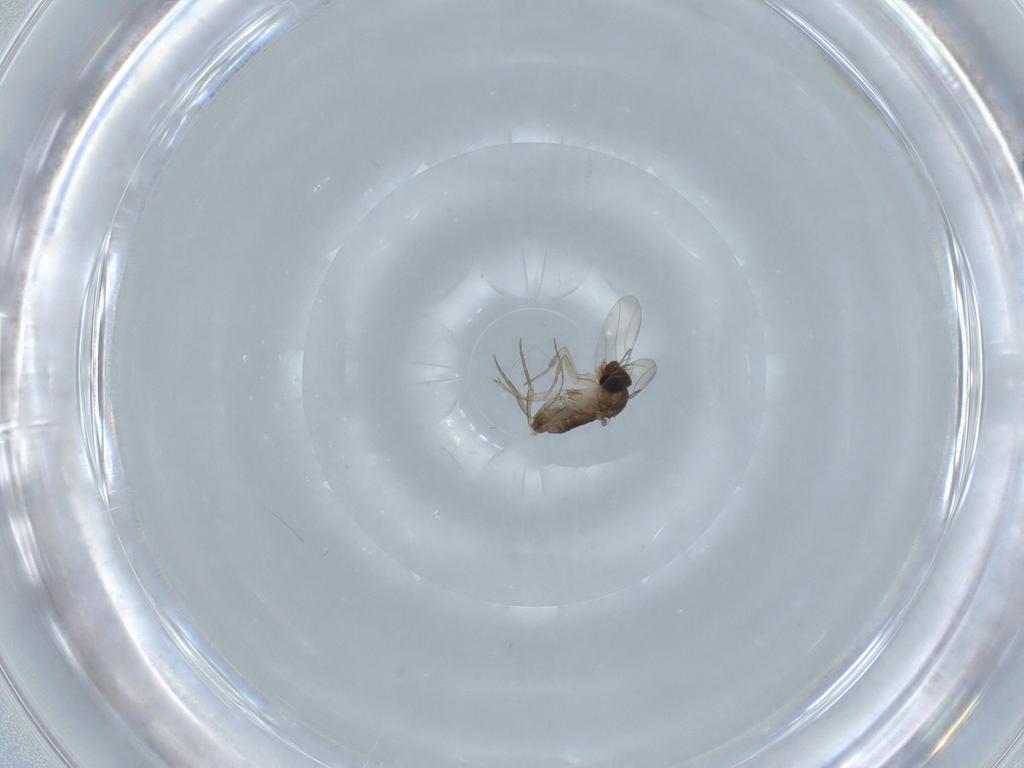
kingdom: Animalia
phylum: Arthropoda
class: Insecta
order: Diptera
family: Phoridae
